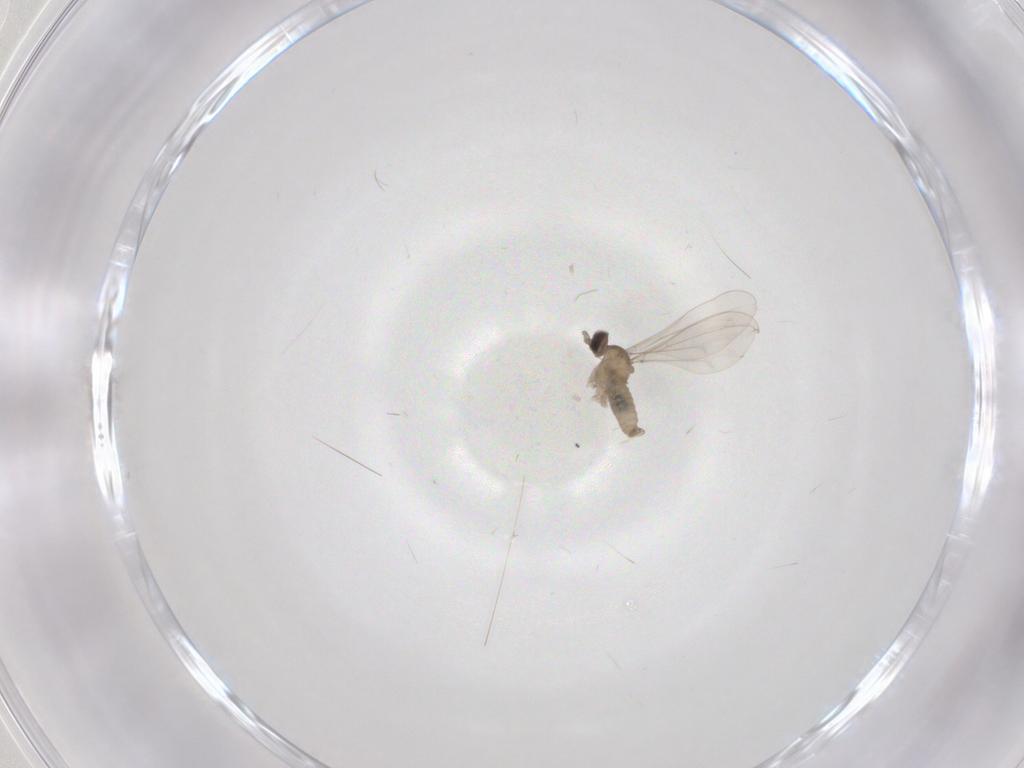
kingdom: Animalia
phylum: Arthropoda
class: Insecta
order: Diptera
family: Cecidomyiidae
